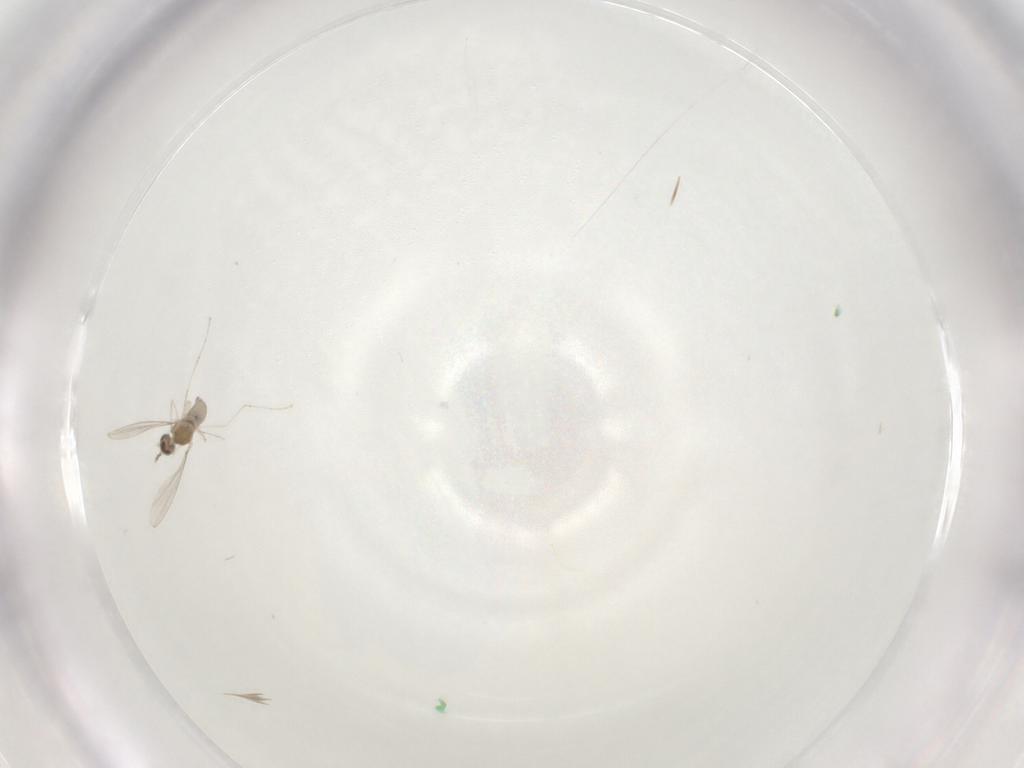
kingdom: Animalia
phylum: Arthropoda
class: Insecta
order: Diptera
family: Cecidomyiidae
